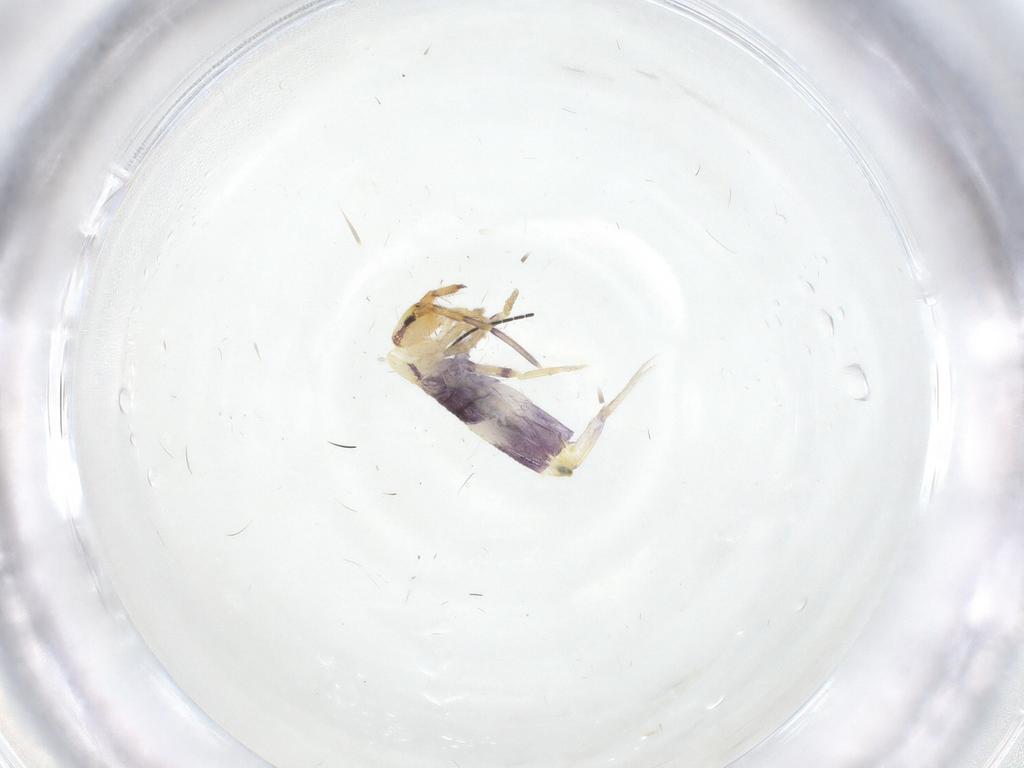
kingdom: Animalia
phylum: Arthropoda
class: Collembola
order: Entomobryomorpha
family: Entomobryidae
